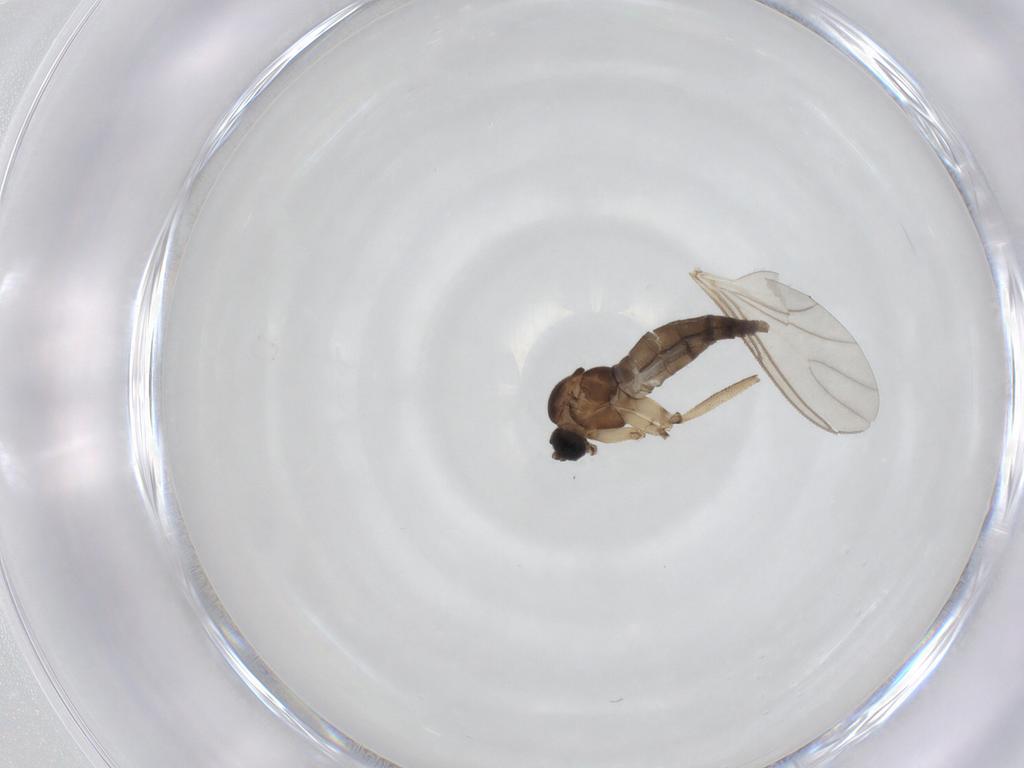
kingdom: Animalia
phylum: Arthropoda
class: Insecta
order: Diptera
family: Sciaridae
